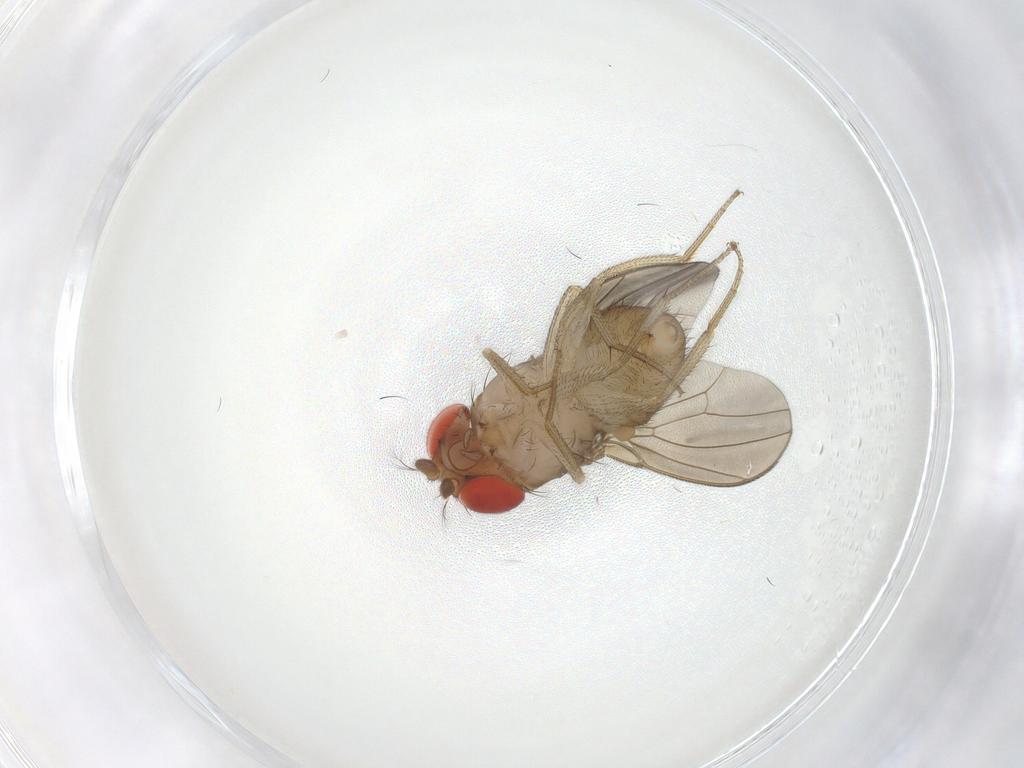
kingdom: Animalia
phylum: Arthropoda
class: Insecta
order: Diptera
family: Drosophilidae
